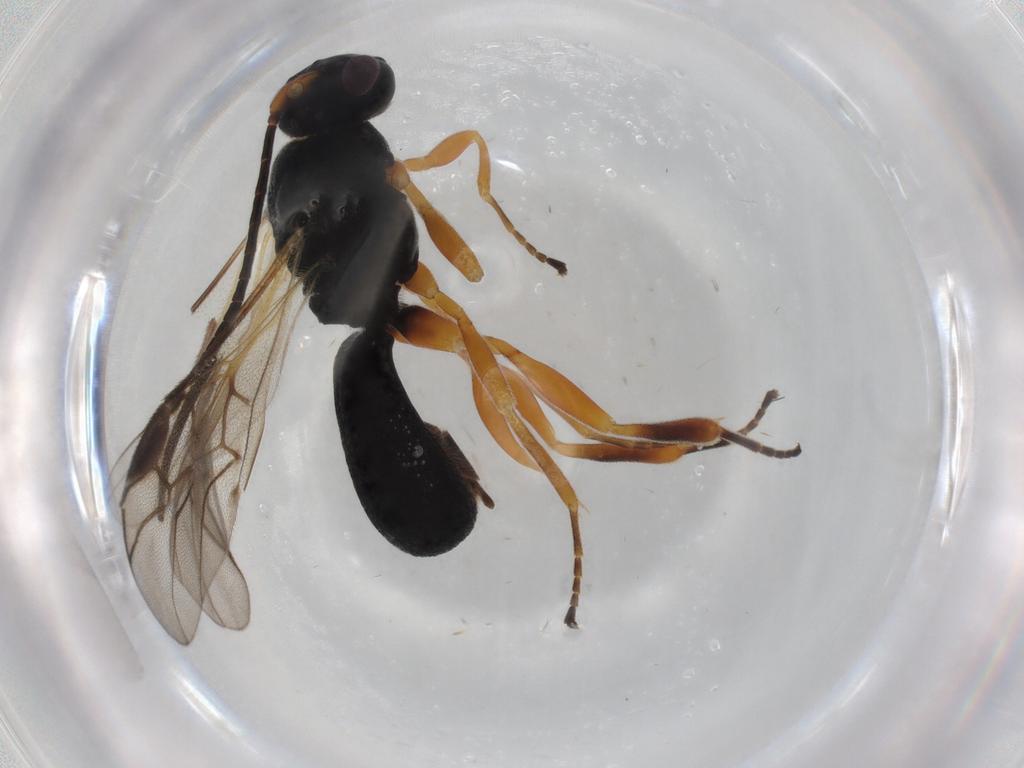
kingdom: Animalia
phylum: Arthropoda
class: Insecta
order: Hymenoptera
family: Braconidae
